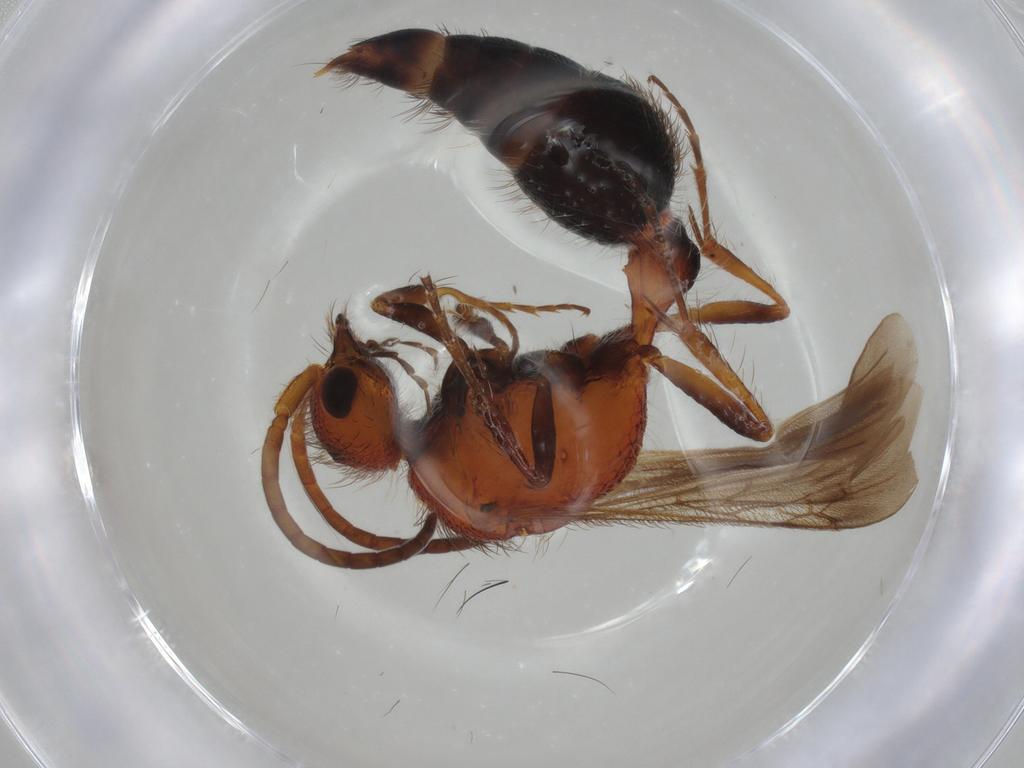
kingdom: Animalia
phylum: Arthropoda
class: Insecta
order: Hymenoptera
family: Mutillidae
